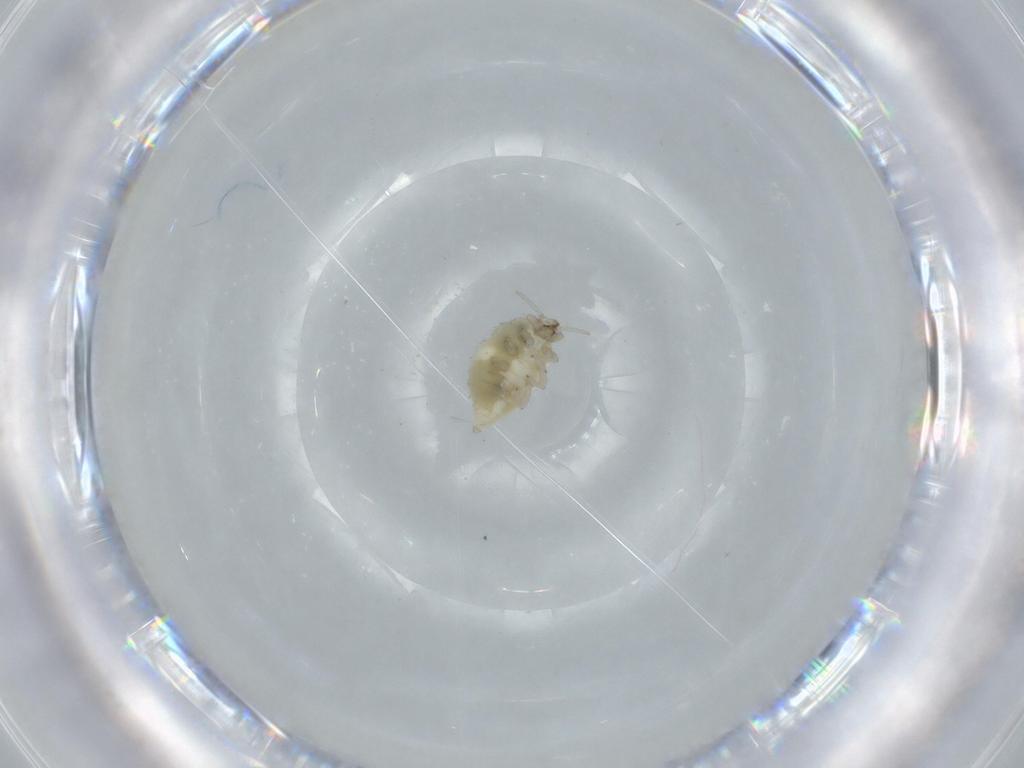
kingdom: Animalia
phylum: Arthropoda
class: Insecta
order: Neuroptera
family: Coniopterygidae
